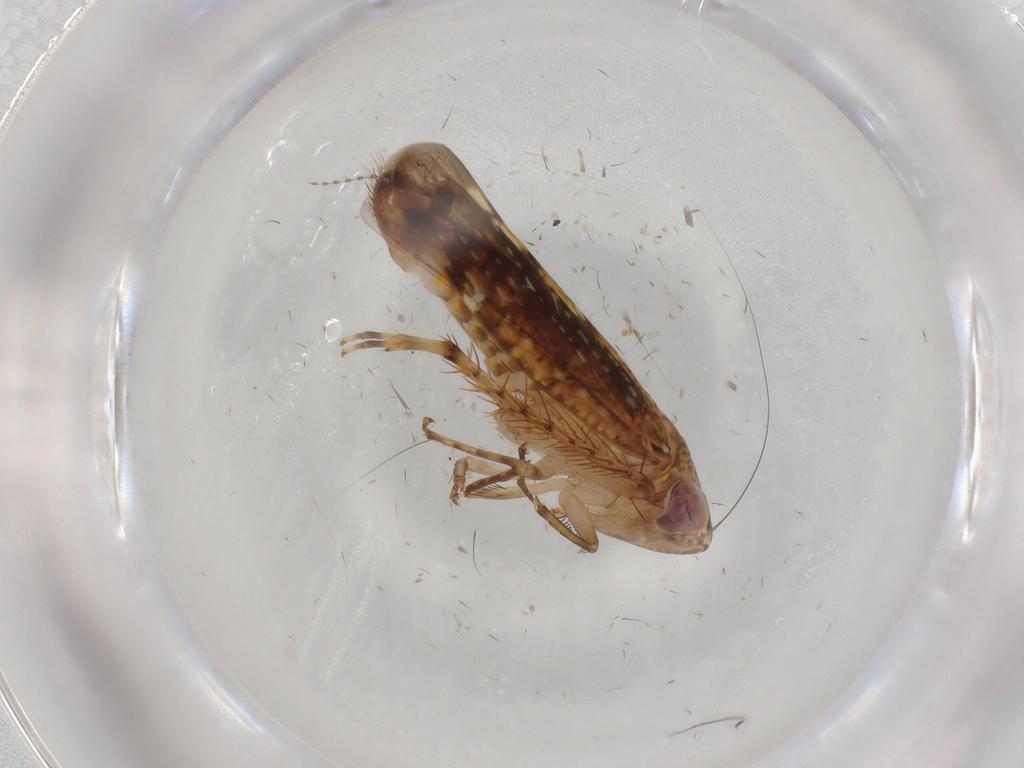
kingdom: Animalia
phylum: Arthropoda
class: Insecta
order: Hemiptera
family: Cicadellidae
